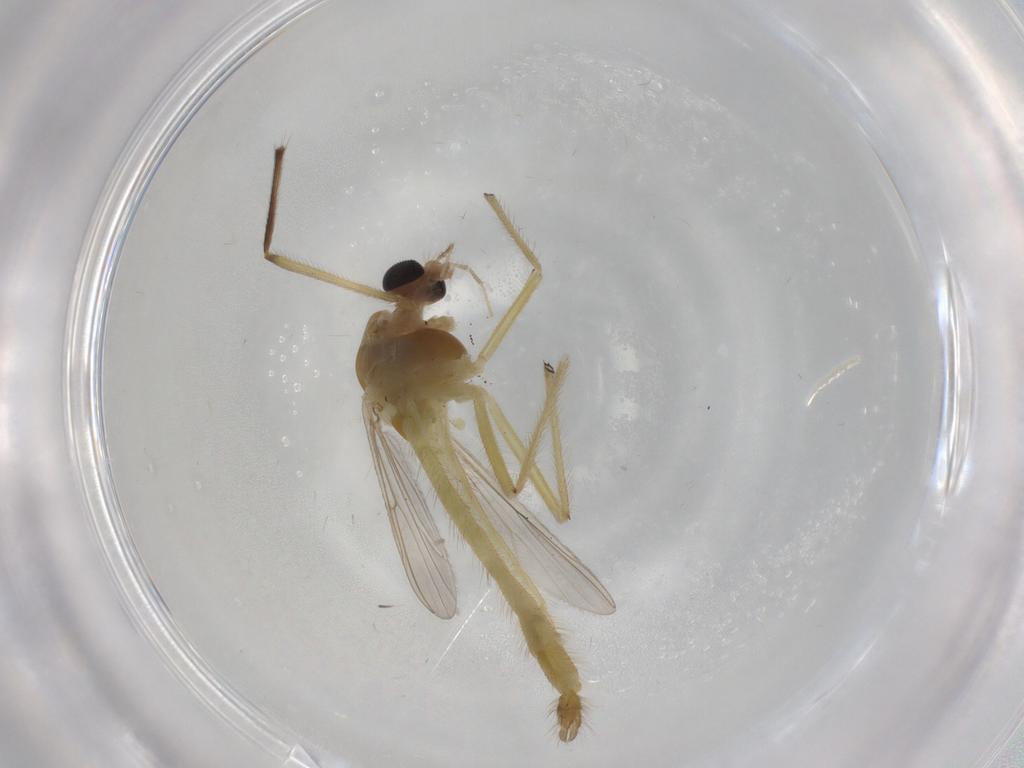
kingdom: Animalia
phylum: Arthropoda
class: Insecta
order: Diptera
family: Chironomidae
